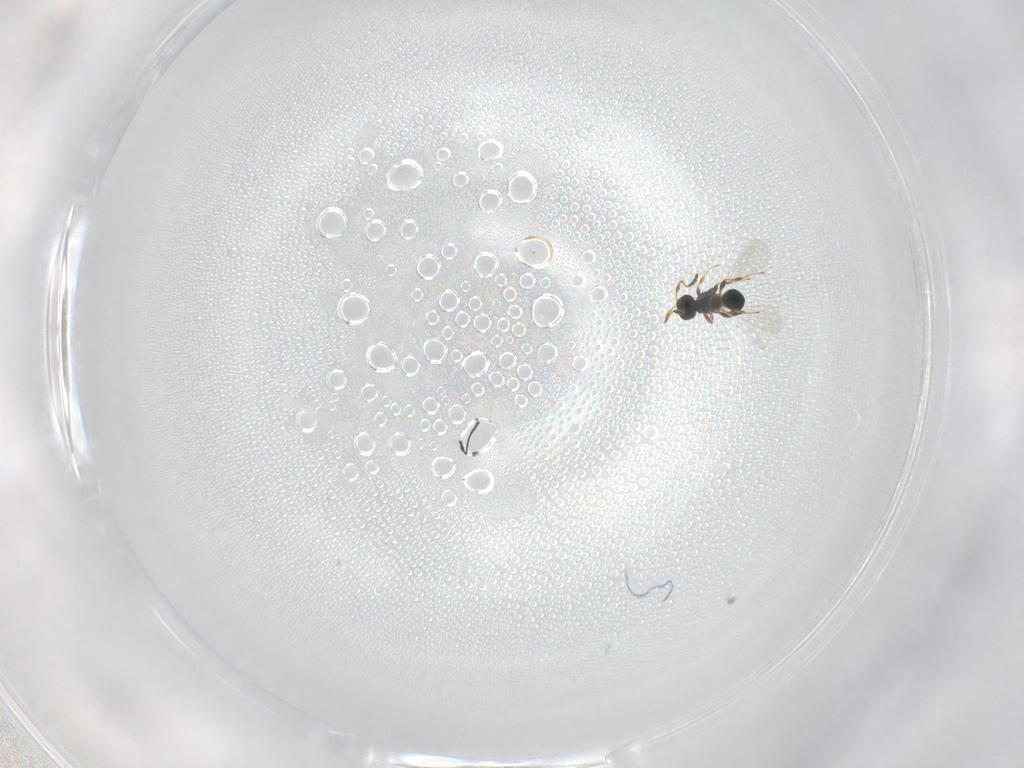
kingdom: Animalia
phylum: Arthropoda
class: Insecta
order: Hymenoptera
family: Platygastridae
